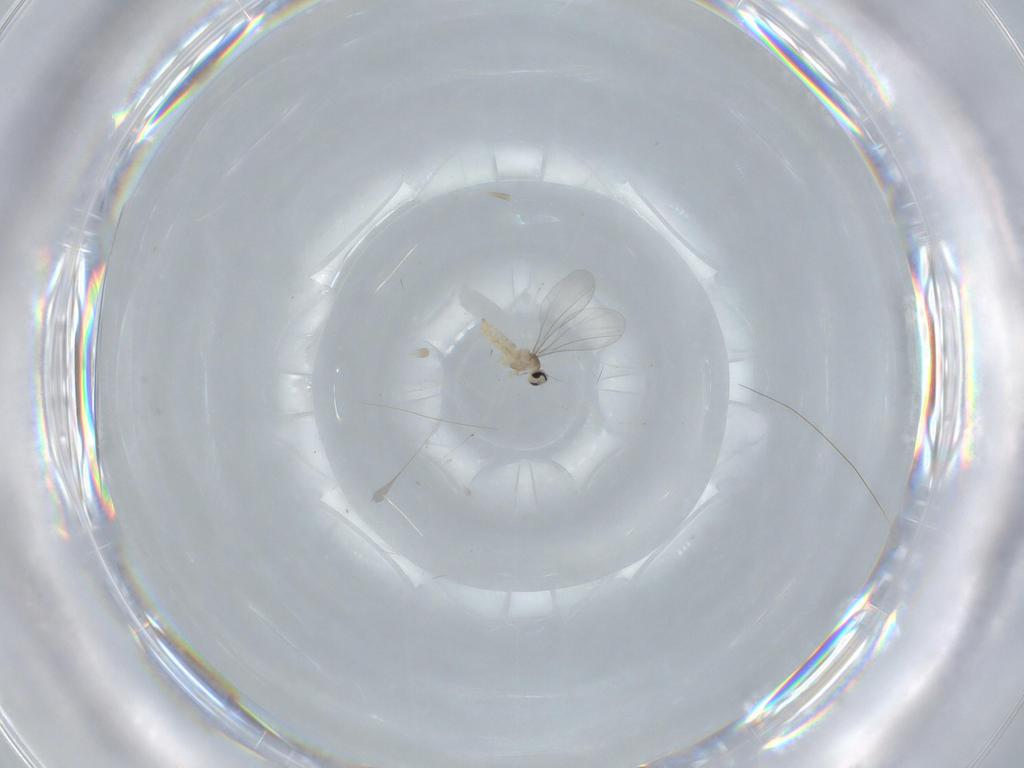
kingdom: Animalia
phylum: Arthropoda
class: Insecta
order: Diptera
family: Cecidomyiidae
